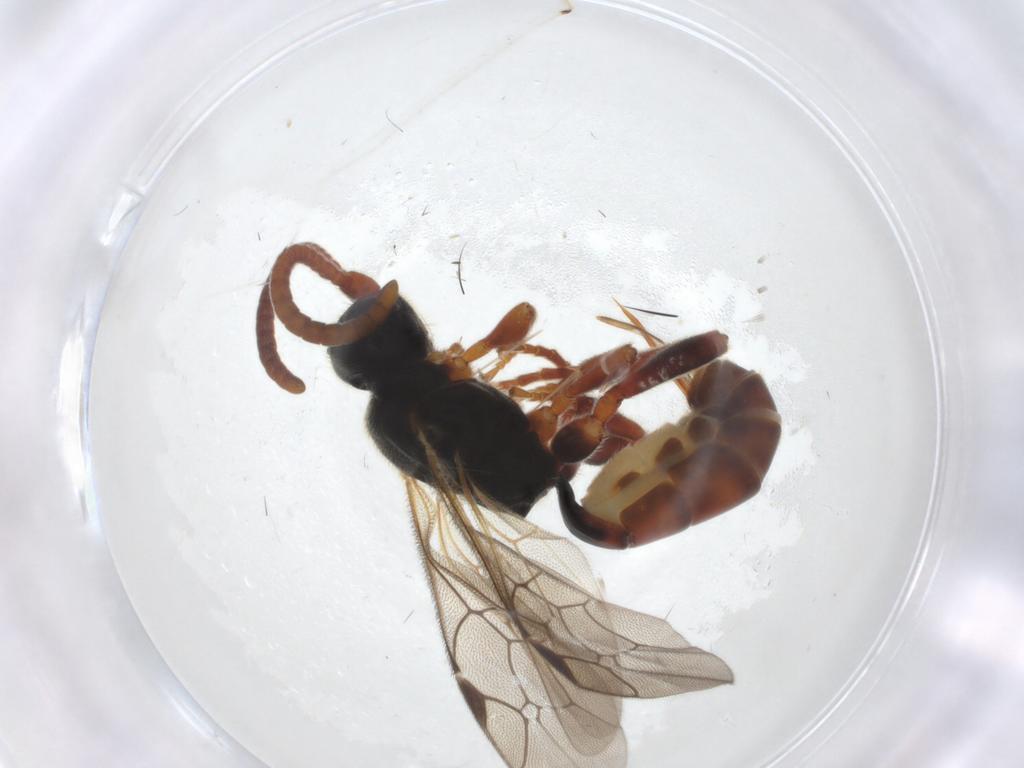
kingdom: Animalia
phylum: Arthropoda
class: Insecta
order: Hymenoptera
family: Ichneumonidae
